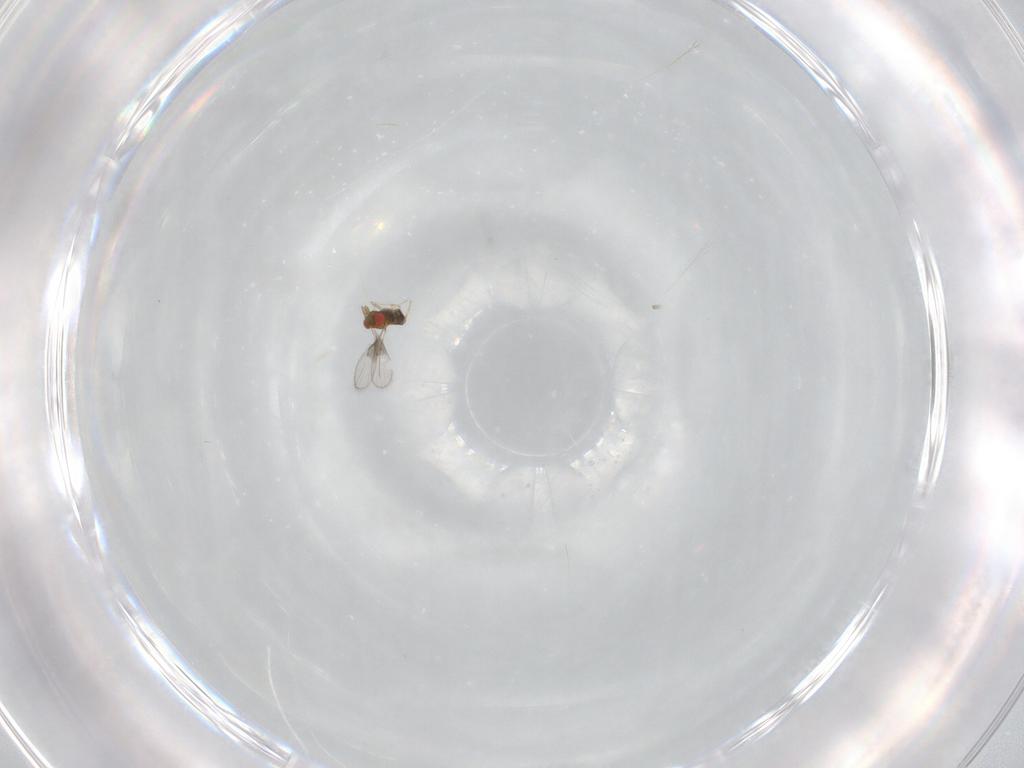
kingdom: Animalia
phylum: Arthropoda
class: Insecta
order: Hymenoptera
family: Trichogrammatidae
